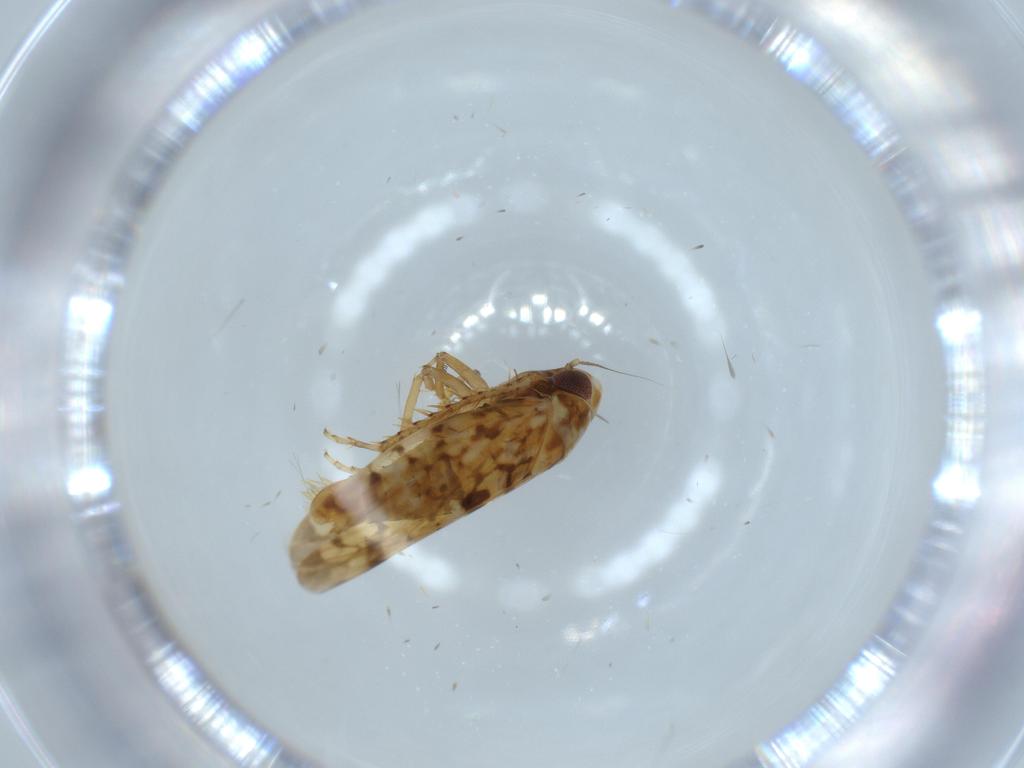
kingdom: Animalia
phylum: Arthropoda
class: Insecta
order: Hemiptera
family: Cicadellidae
